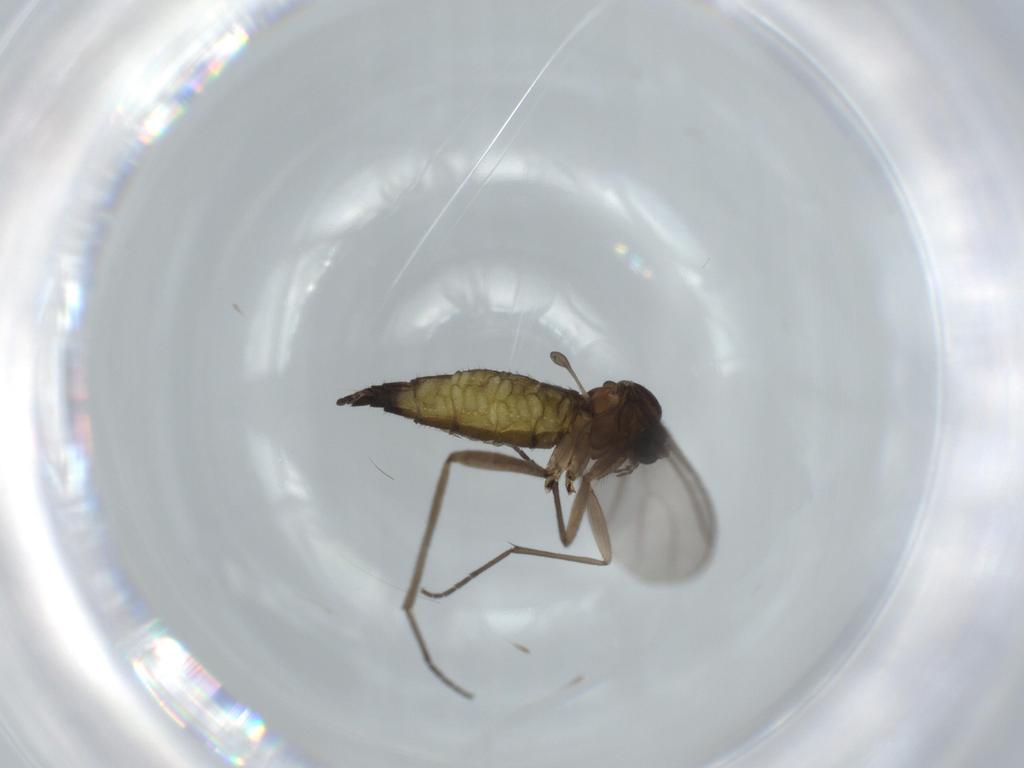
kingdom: Animalia
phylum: Arthropoda
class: Insecta
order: Diptera
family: Sciaridae
